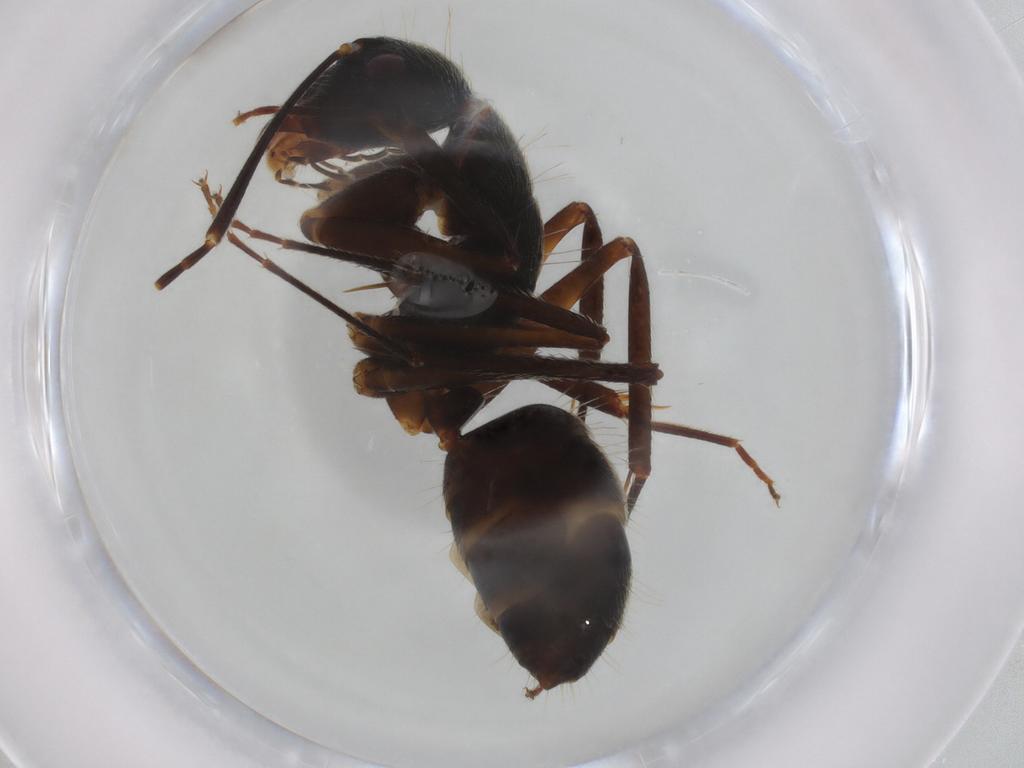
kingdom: Animalia
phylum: Arthropoda
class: Insecta
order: Hymenoptera
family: Formicidae
